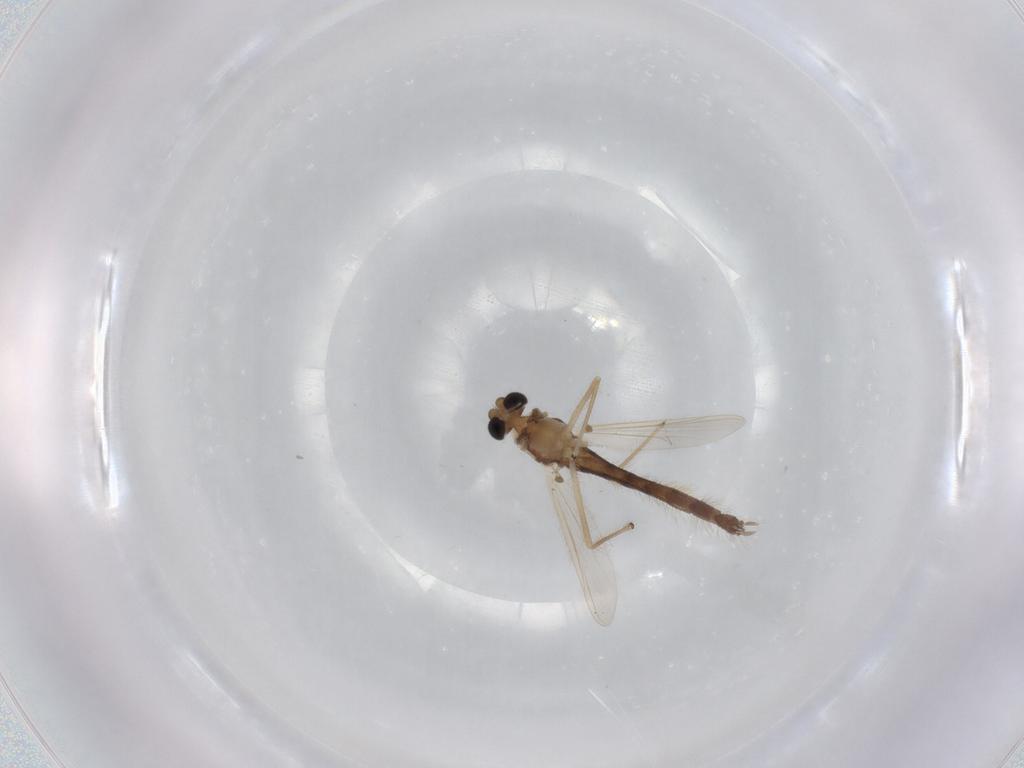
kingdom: Animalia
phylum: Arthropoda
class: Insecta
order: Diptera
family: Chironomidae
